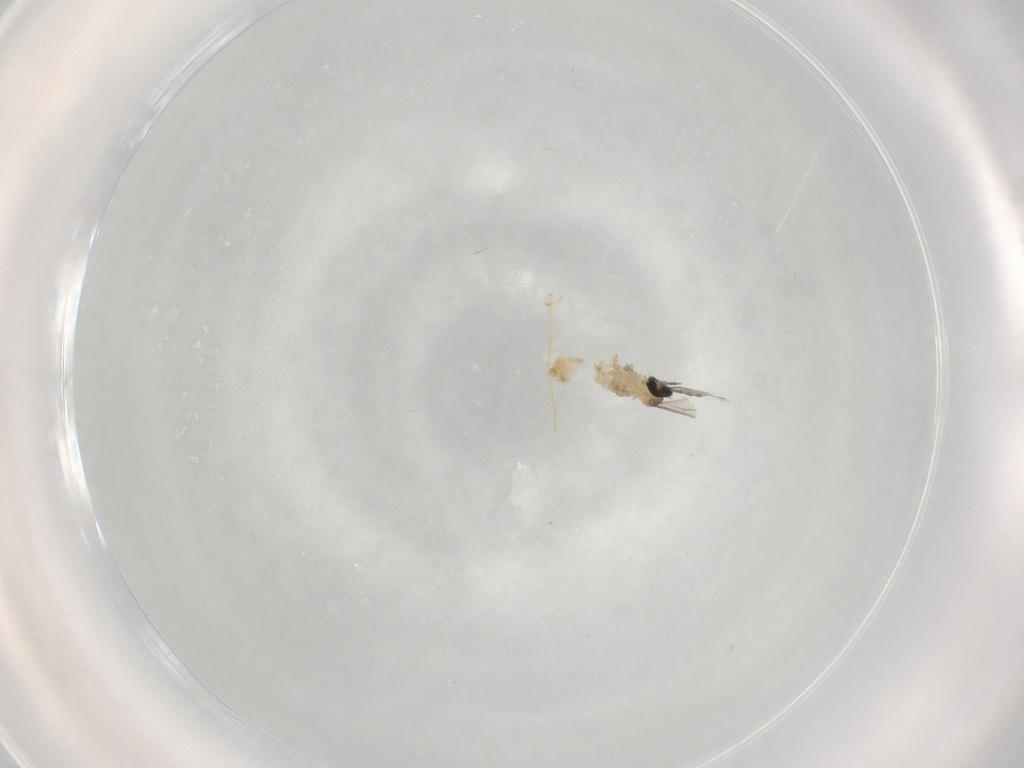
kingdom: Animalia
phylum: Arthropoda
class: Insecta
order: Diptera
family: Cecidomyiidae
